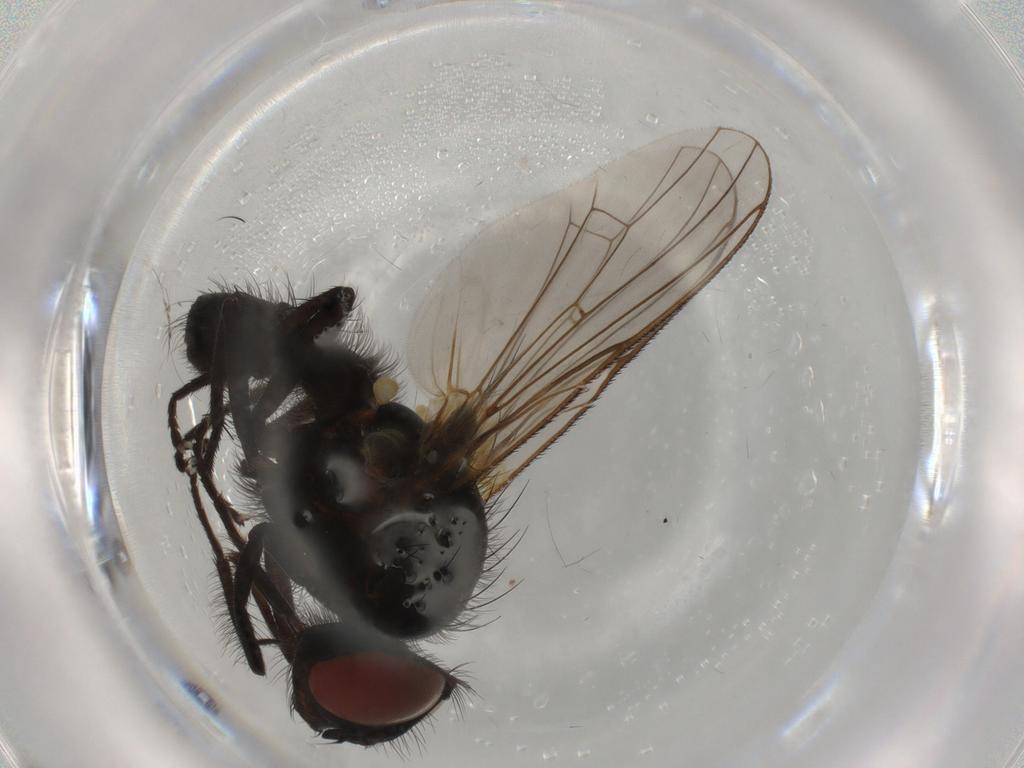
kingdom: Animalia
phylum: Arthropoda
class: Insecta
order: Diptera
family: Anthomyiidae
